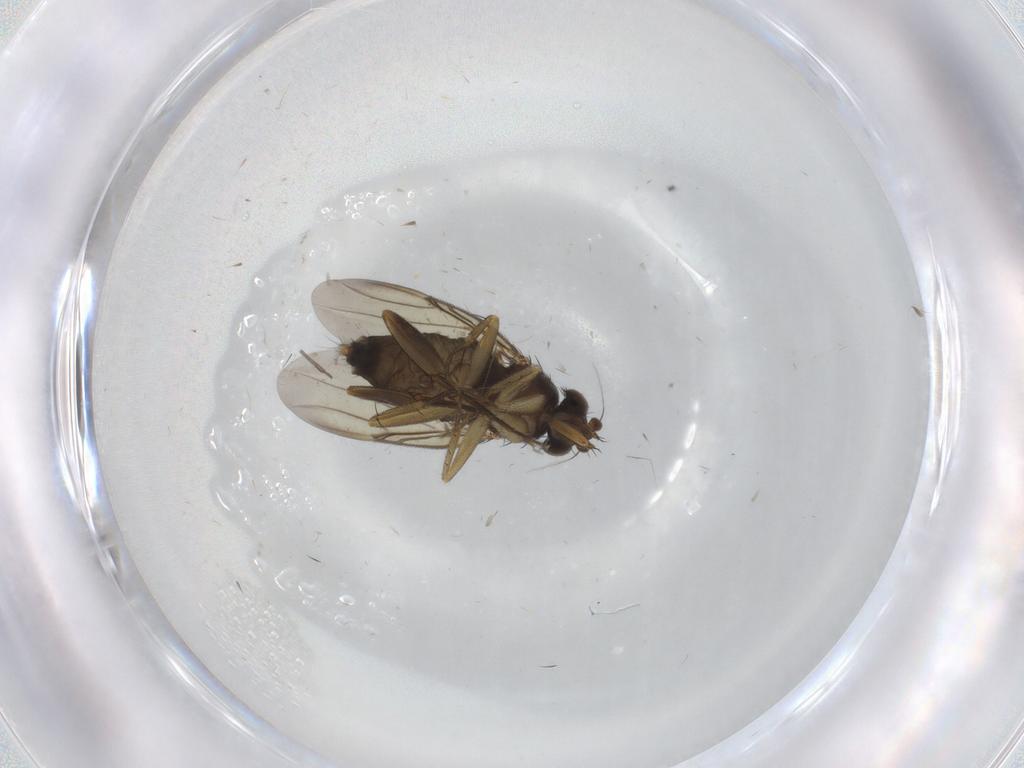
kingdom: Animalia
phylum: Arthropoda
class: Insecta
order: Diptera
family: Phoridae
